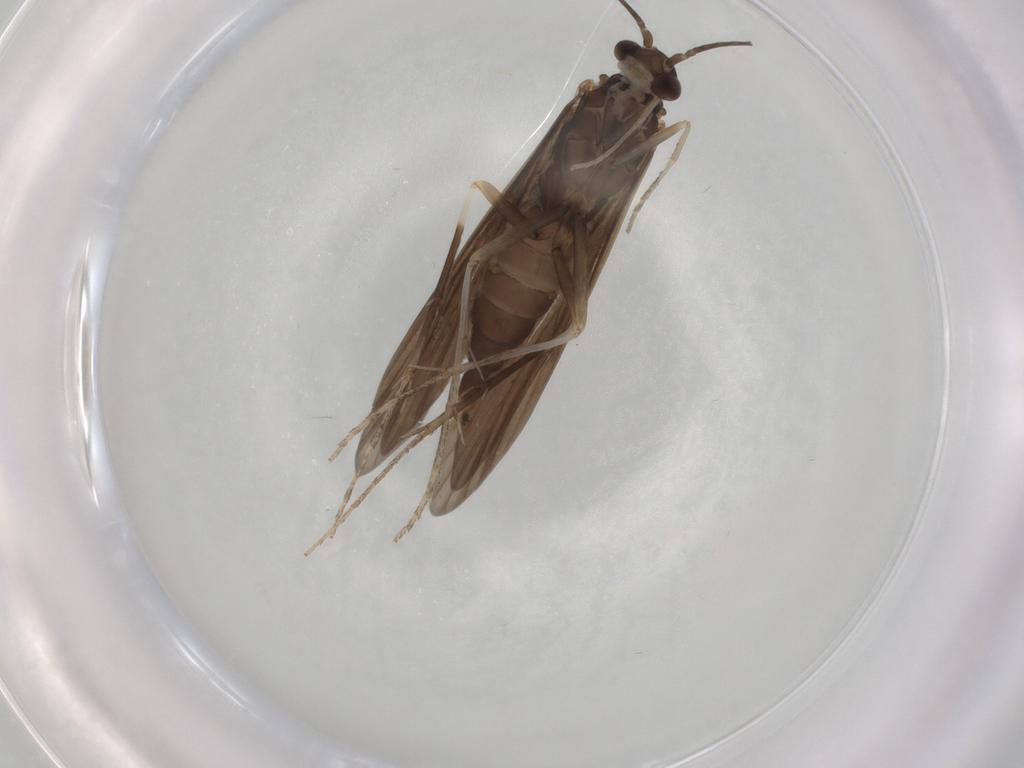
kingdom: Animalia
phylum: Arthropoda
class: Insecta
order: Trichoptera
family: Xiphocentronidae
